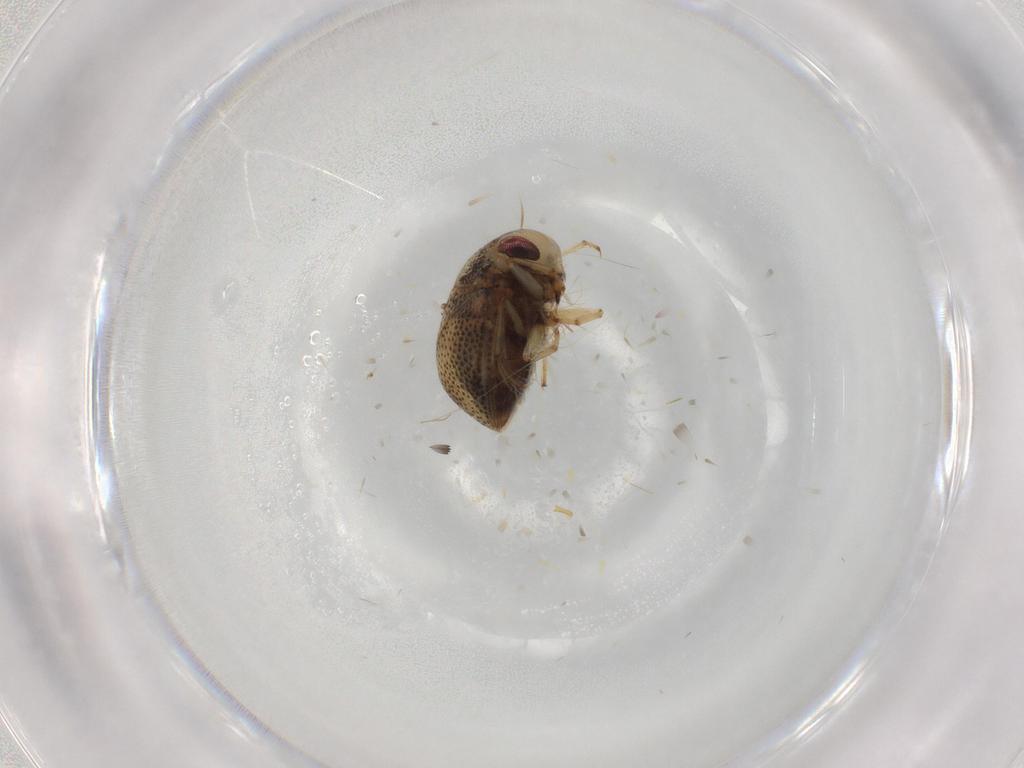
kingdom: Animalia
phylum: Arthropoda
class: Insecta
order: Hemiptera
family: Pleidae
